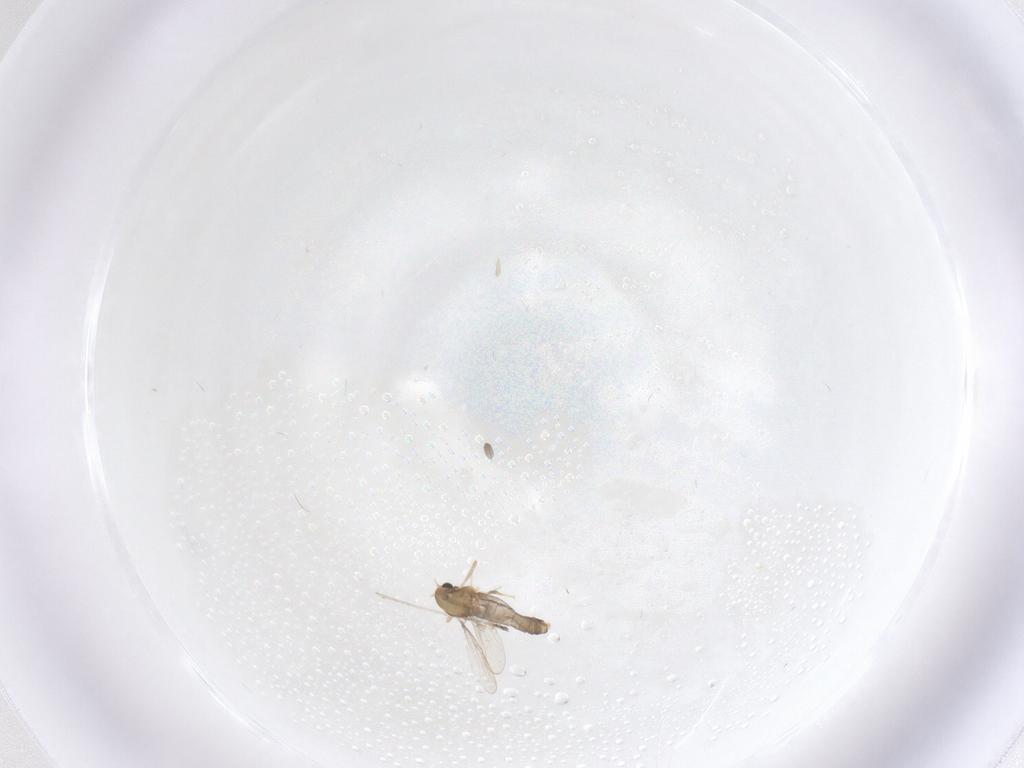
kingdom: Animalia
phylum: Arthropoda
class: Insecta
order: Diptera
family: Chironomidae
